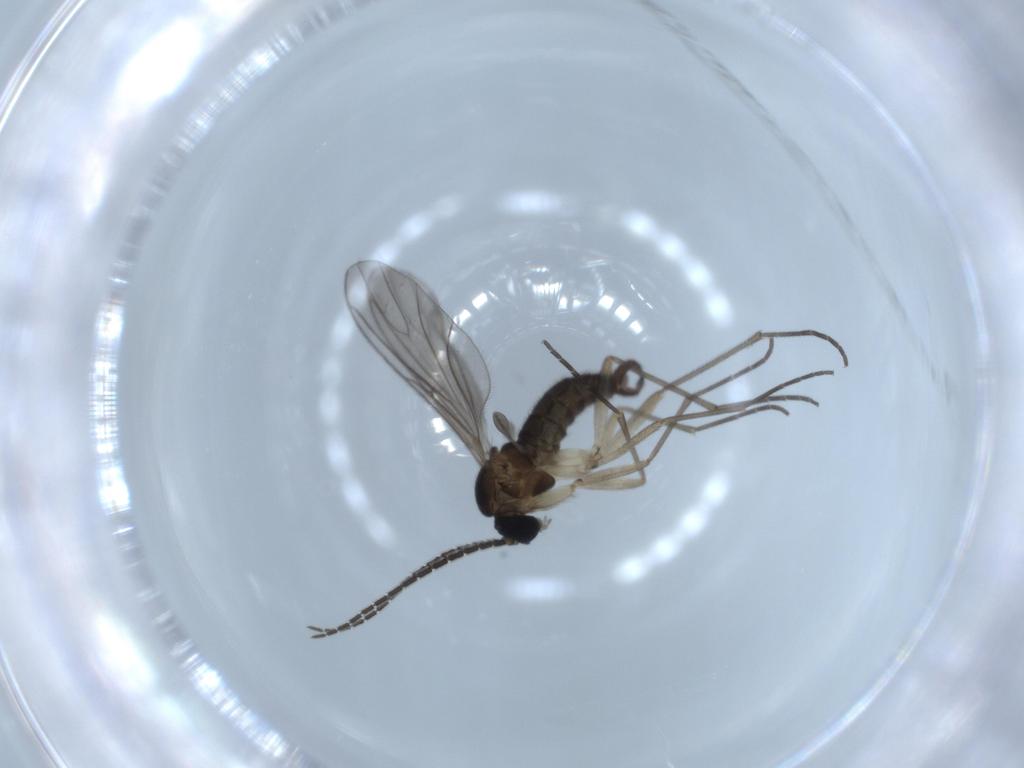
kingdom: Animalia
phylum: Arthropoda
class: Insecta
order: Diptera
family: Sciaridae
